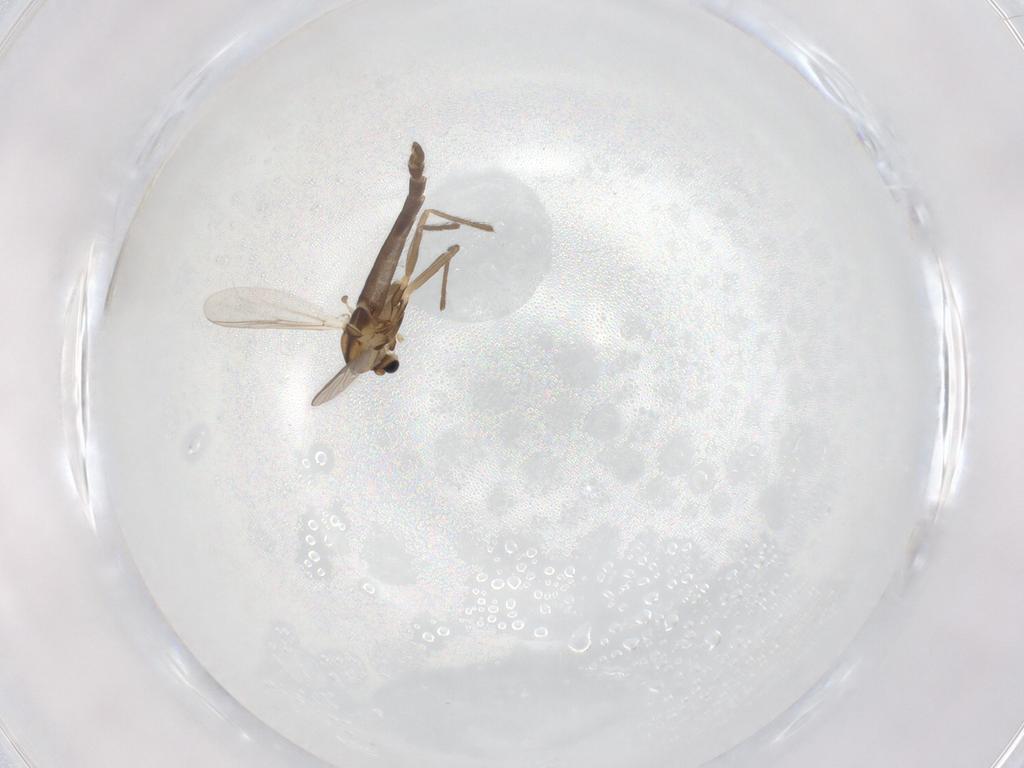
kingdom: Animalia
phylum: Arthropoda
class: Insecta
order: Diptera
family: Chironomidae
